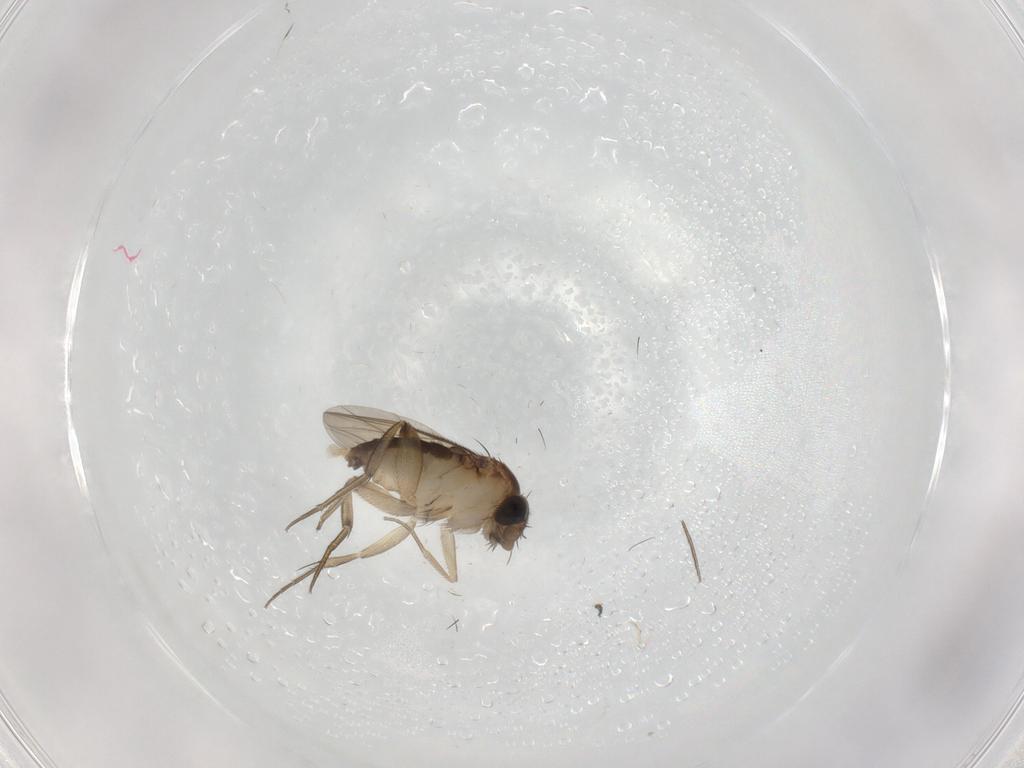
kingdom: Animalia
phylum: Arthropoda
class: Insecta
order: Diptera
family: Phoridae
